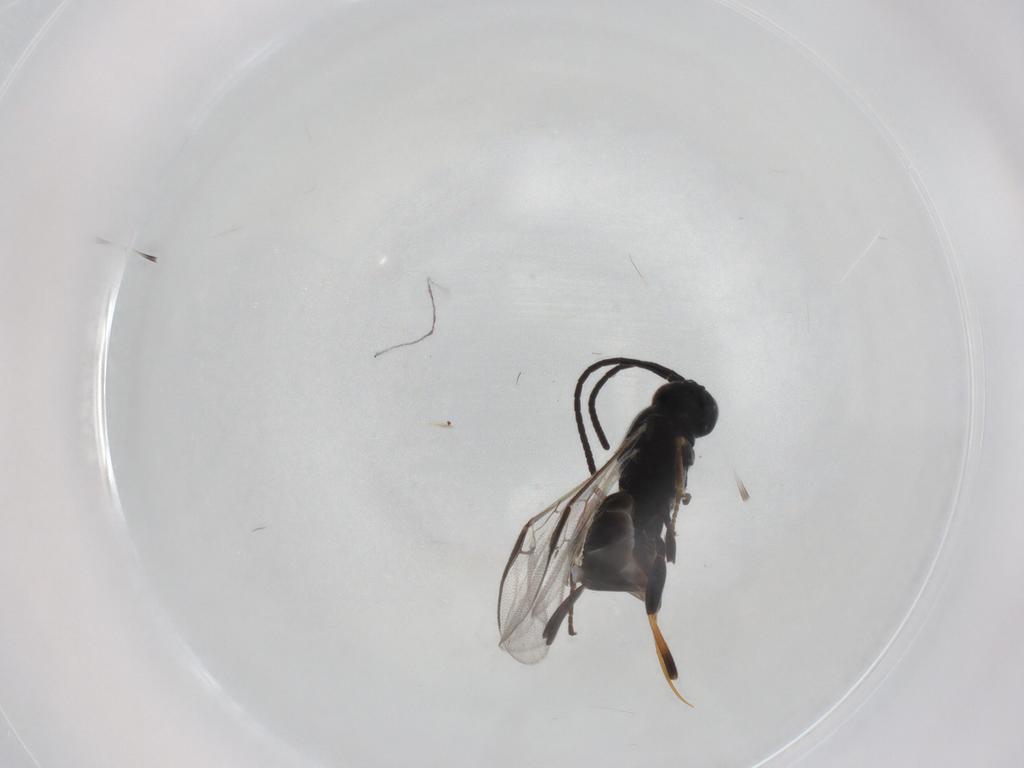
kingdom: Animalia
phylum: Arthropoda
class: Insecta
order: Hymenoptera
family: Braconidae
